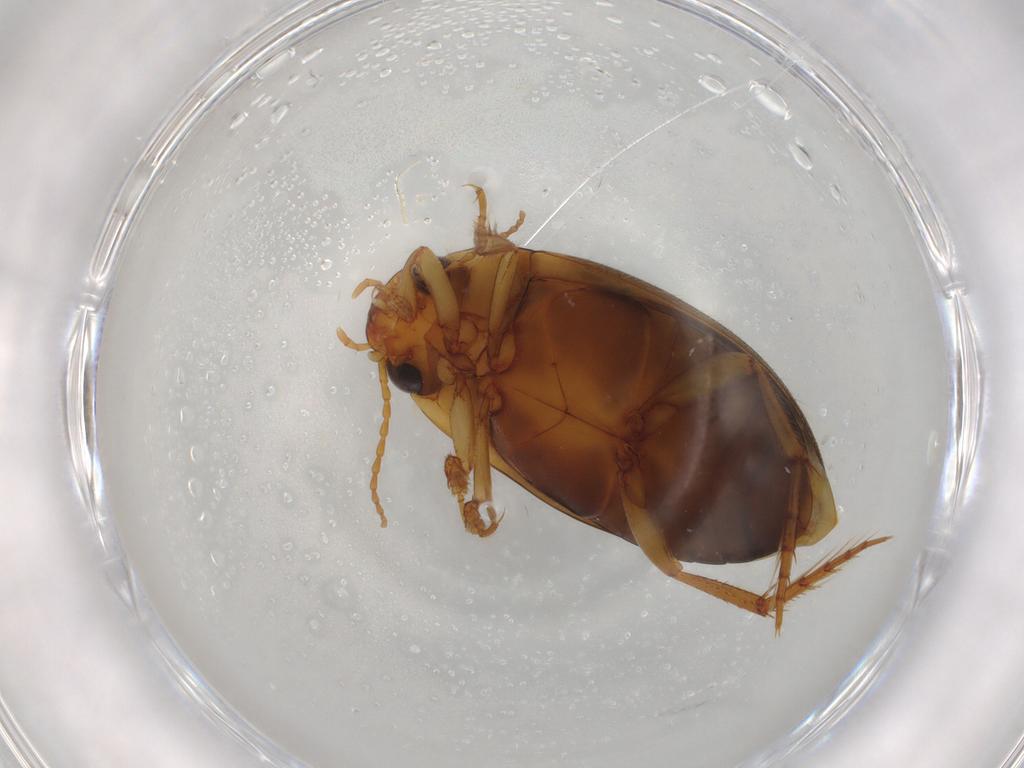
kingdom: Animalia
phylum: Arthropoda
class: Insecta
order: Coleoptera
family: Dytiscidae
